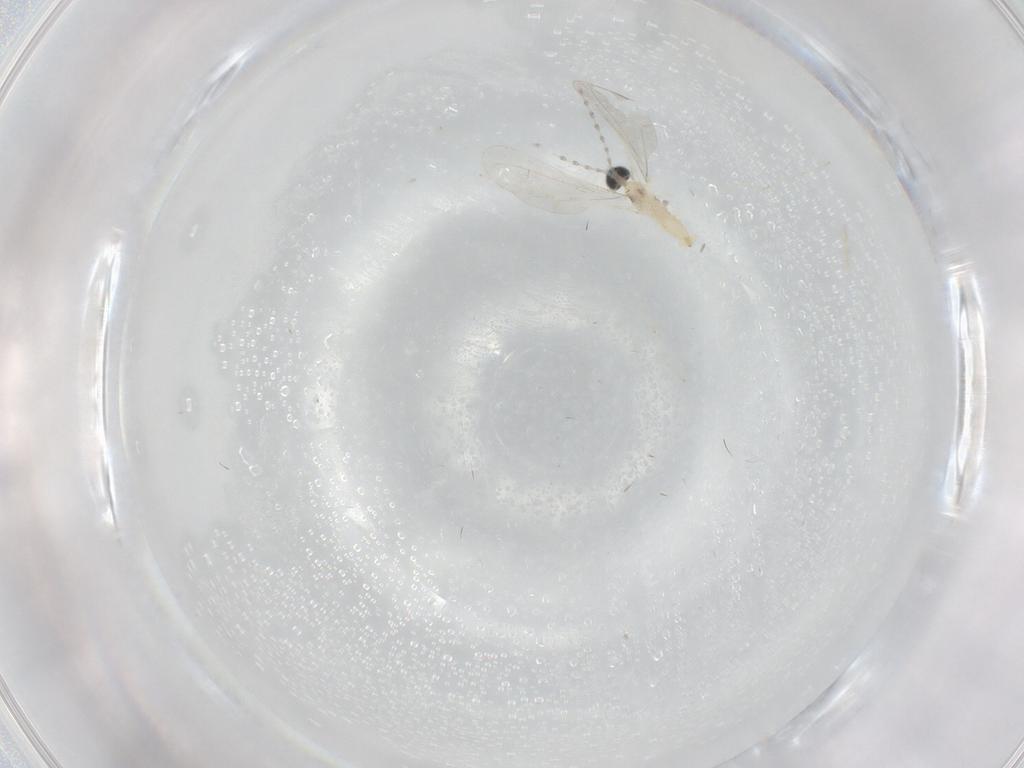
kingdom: Animalia
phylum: Arthropoda
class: Insecta
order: Diptera
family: Cecidomyiidae
